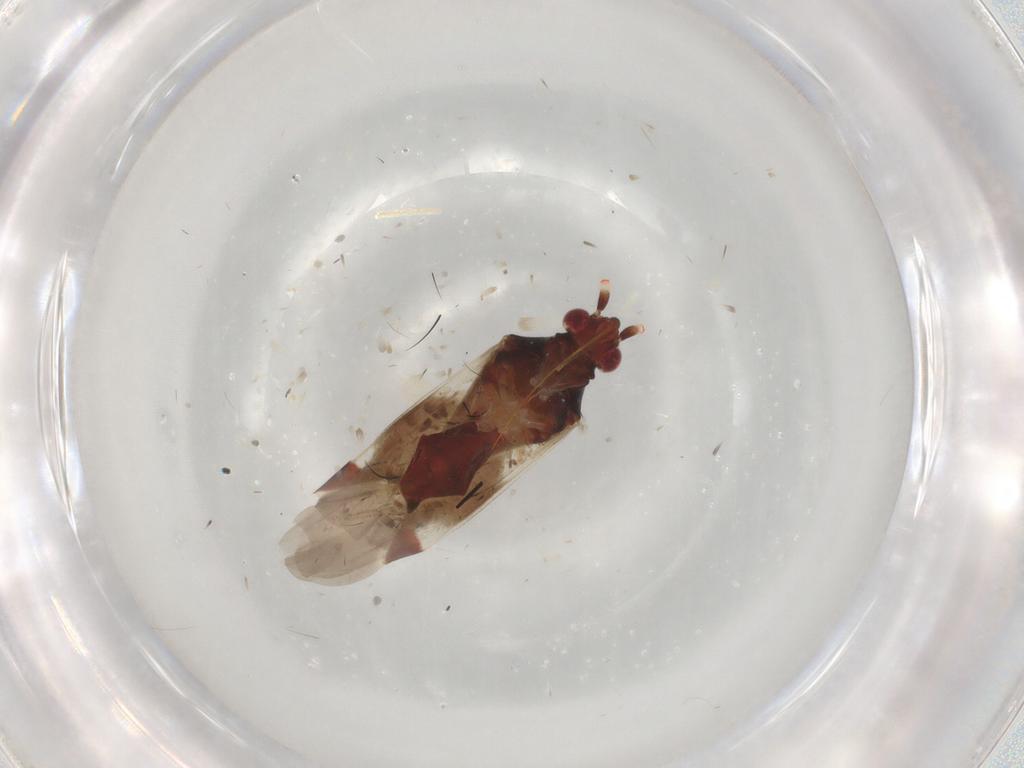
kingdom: Animalia
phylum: Arthropoda
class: Insecta
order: Hemiptera
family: Miridae
